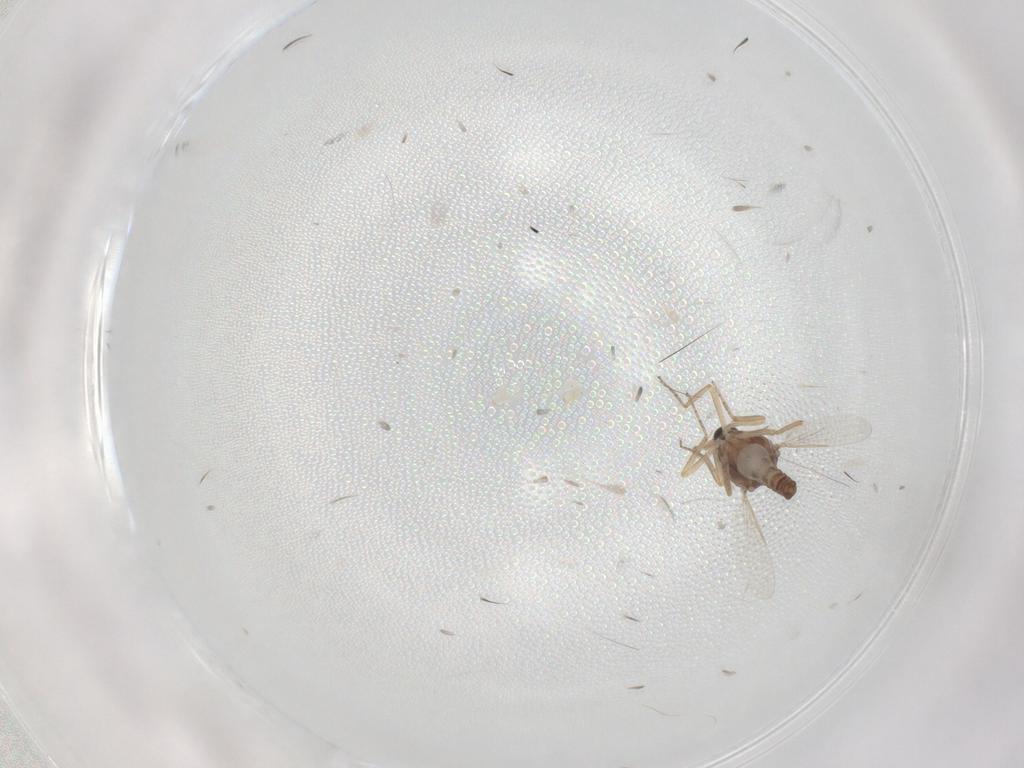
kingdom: Animalia
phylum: Arthropoda
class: Insecta
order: Diptera
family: Ceratopogonidae
